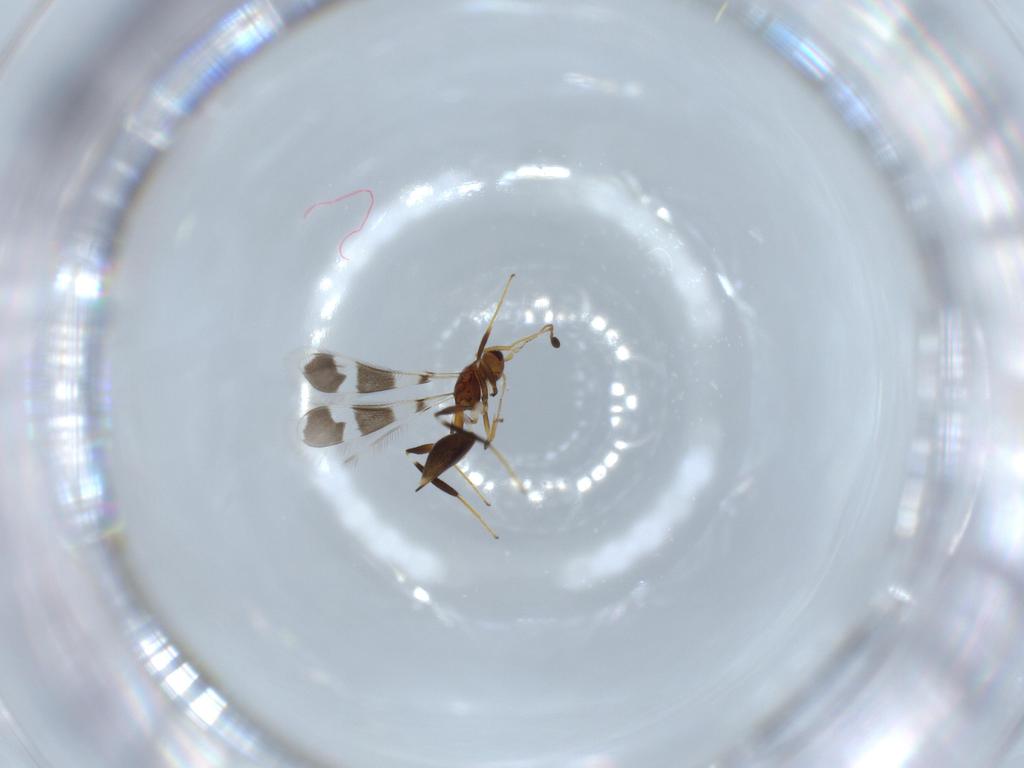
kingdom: Animalia
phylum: Arthropoda
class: Insecta
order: Hymenoptera
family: Mymaridae
